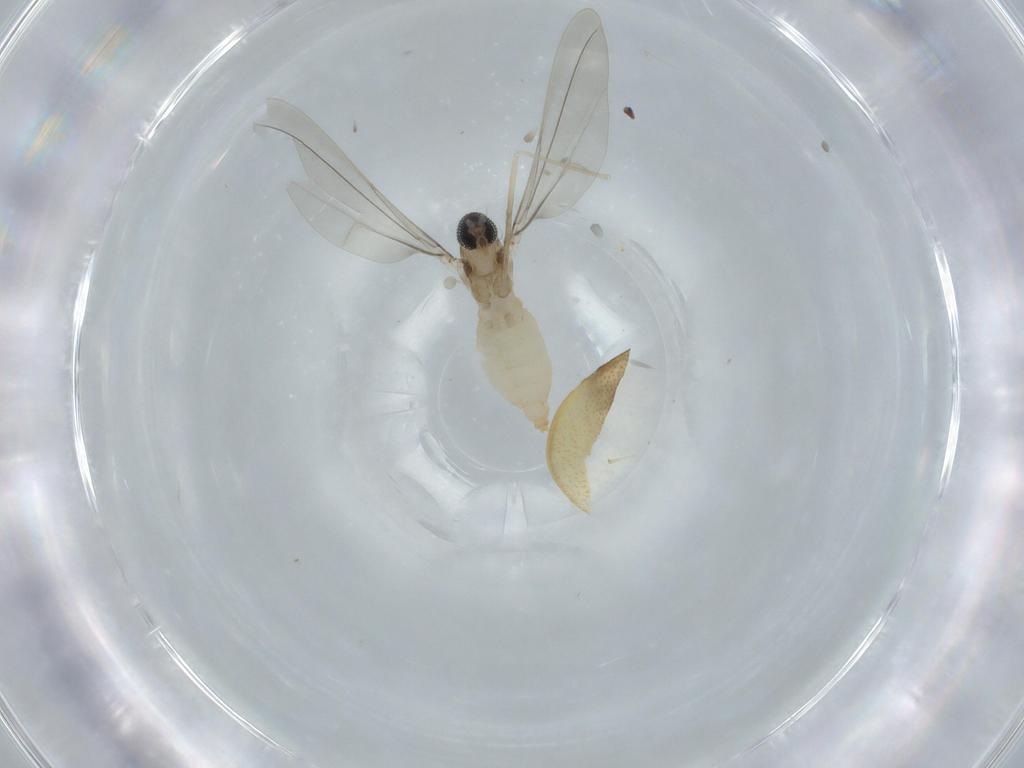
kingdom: Animalia
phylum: Arthropoda
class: Insecta
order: Diptera
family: Cecidomyiidae
